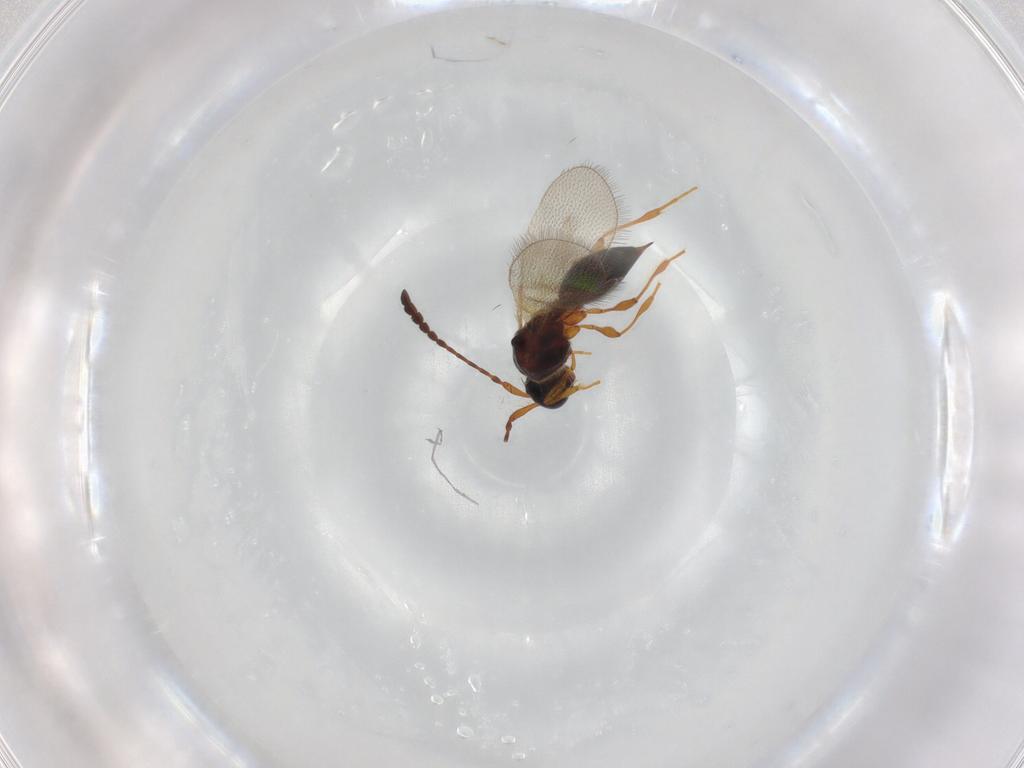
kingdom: Animalia
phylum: Arthropoda
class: Insecta
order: Hymenoptera
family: Diapriidae
